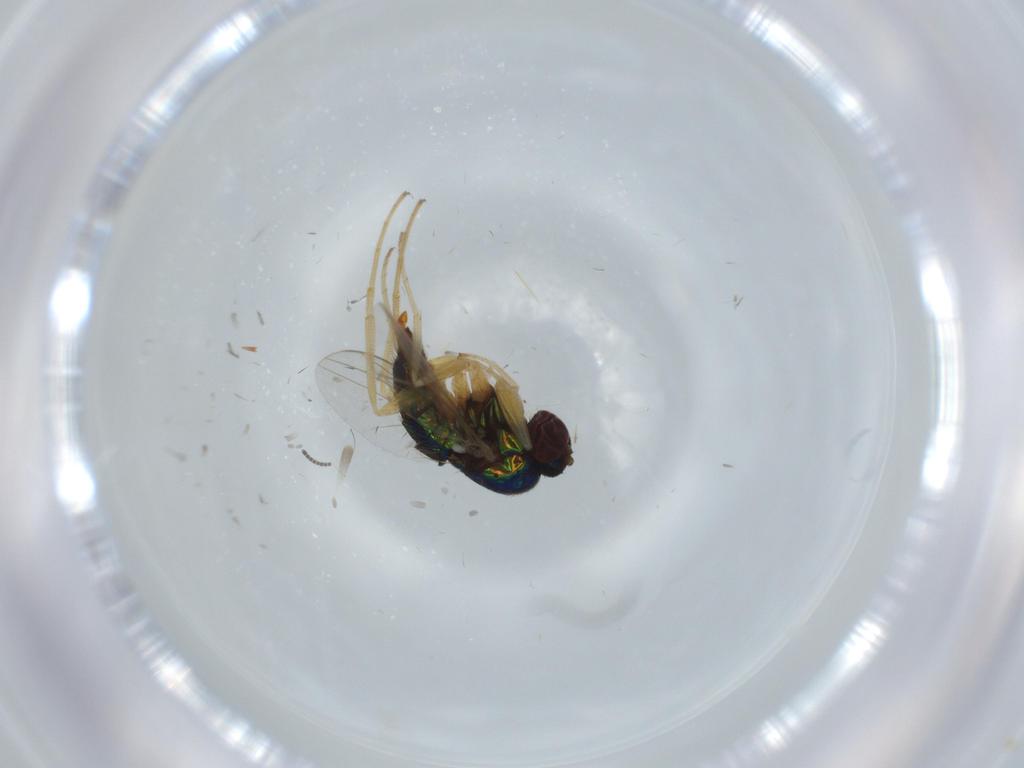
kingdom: Animalia
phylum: Arthropoda
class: Insecta
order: Diptera
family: Dolichopodidae
